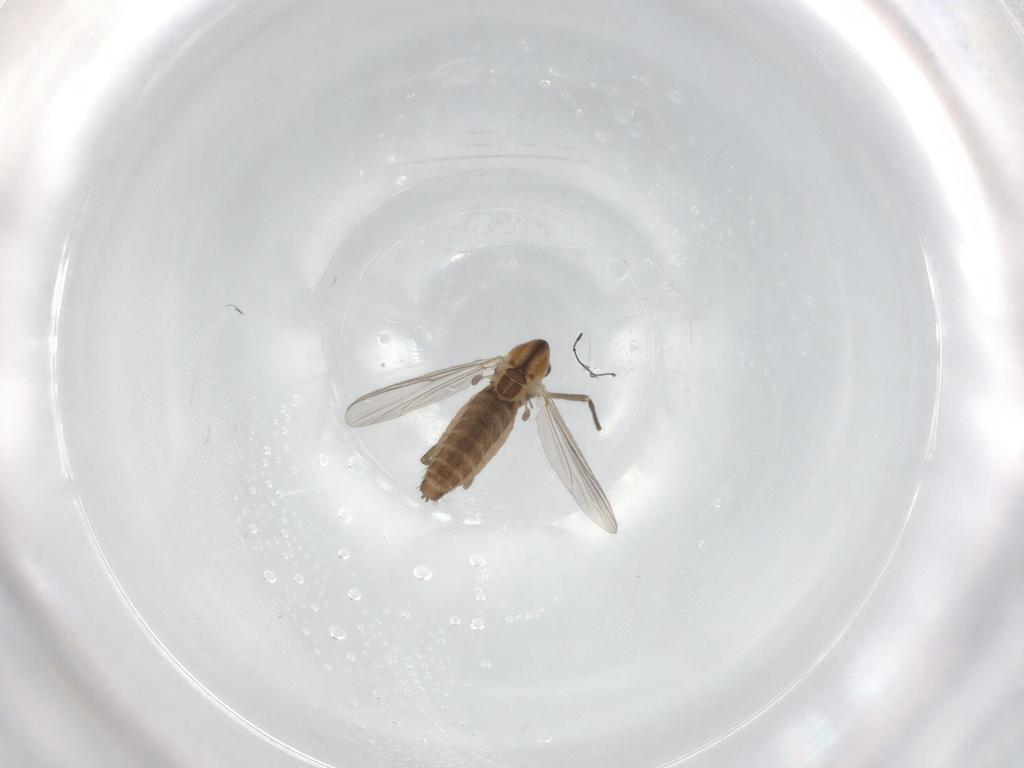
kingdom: Animalia
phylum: Arthropoda
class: Insecta
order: Diptera
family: Chironomidae
